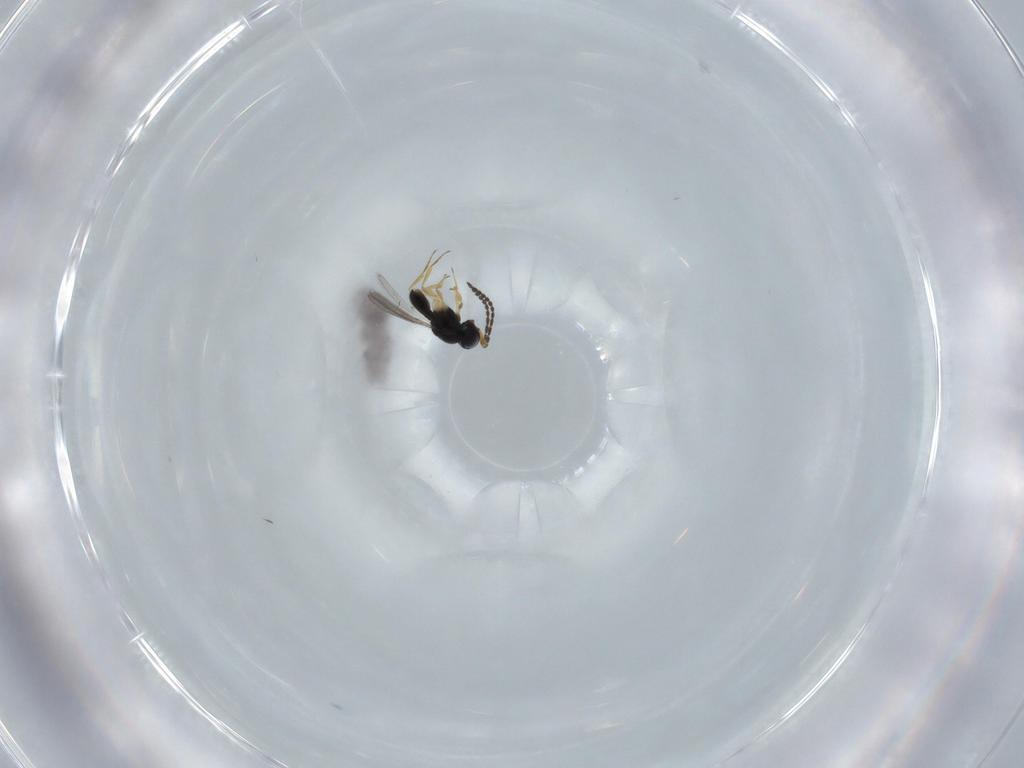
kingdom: Animalia
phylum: Arthropoda
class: Insecta
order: Hymenoptera
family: Scelionidae
